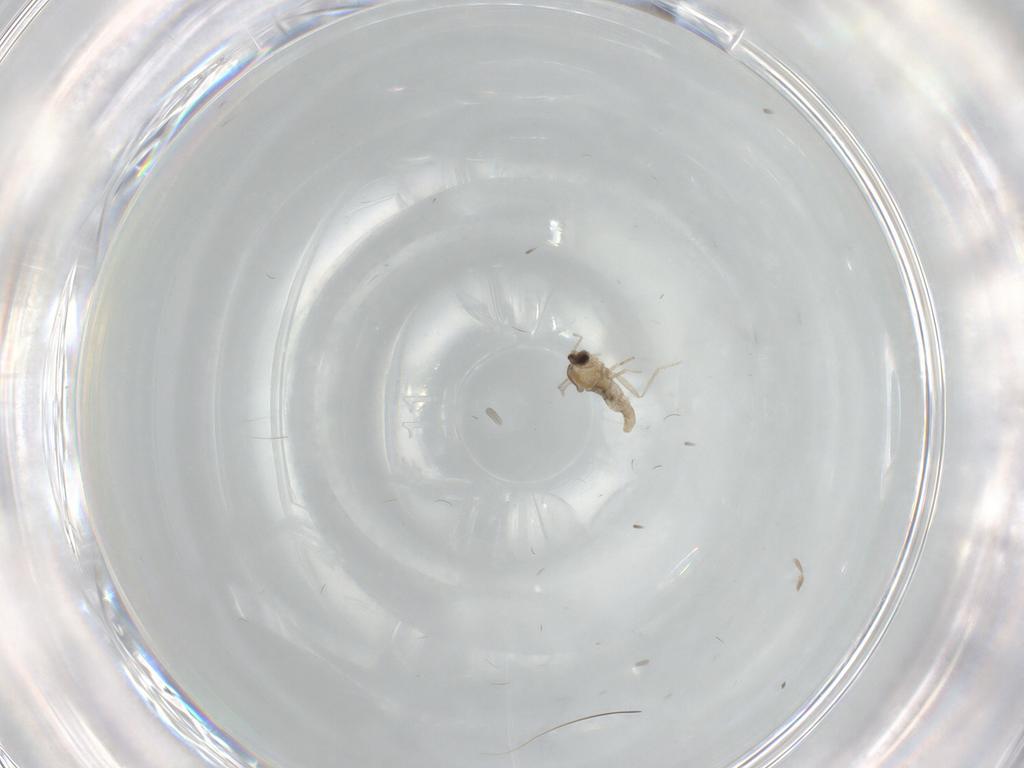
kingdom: Animalia
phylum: Arthropoda
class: Insecta
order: Diptera
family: Cecidomyiidae
